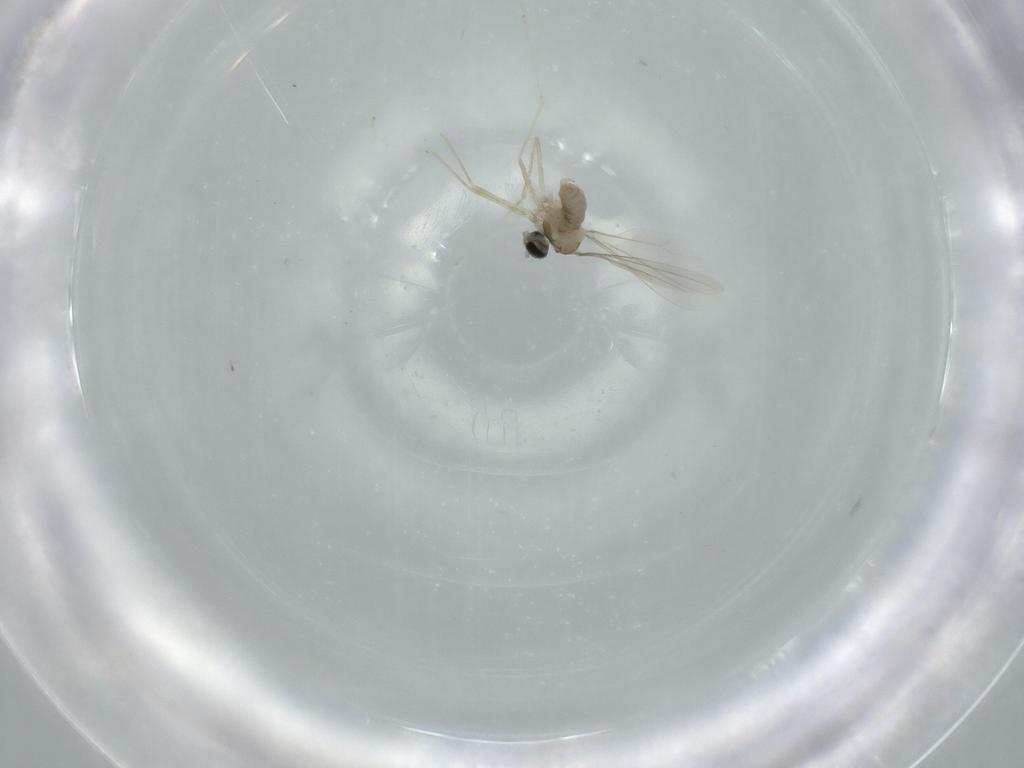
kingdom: Animalia
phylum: Arthropoda
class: Insecta
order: Diptera
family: Cecidomyiidae
